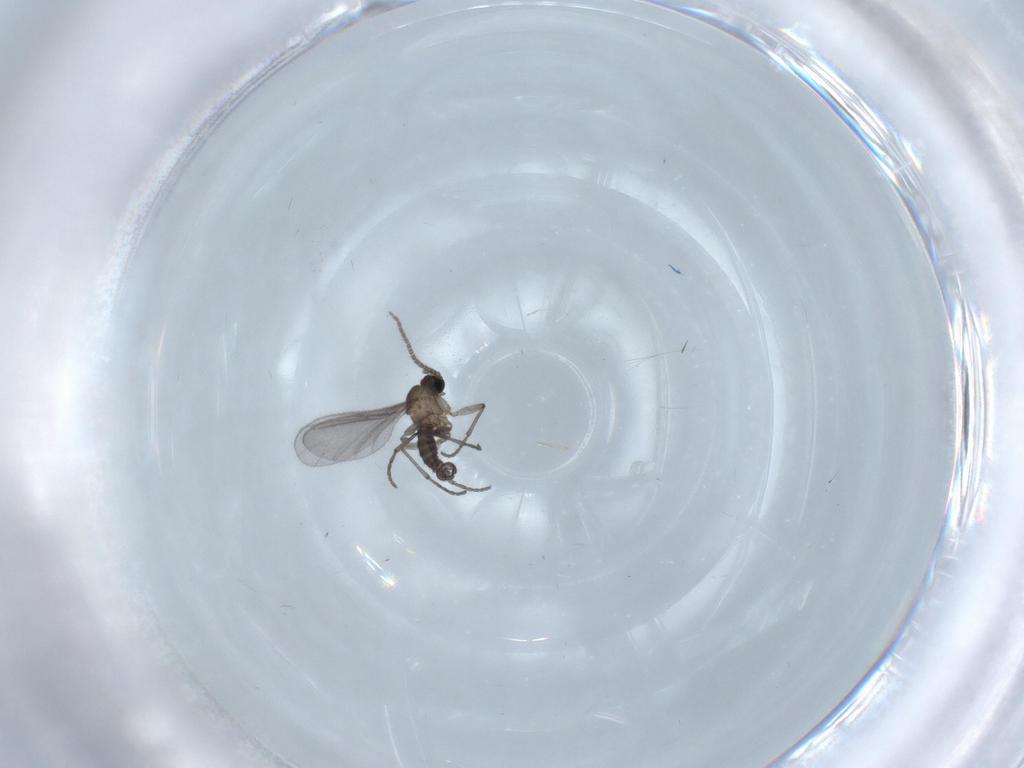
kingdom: Animalia
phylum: Arthropoda
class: Insecta
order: Diptera
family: Sciaridae
